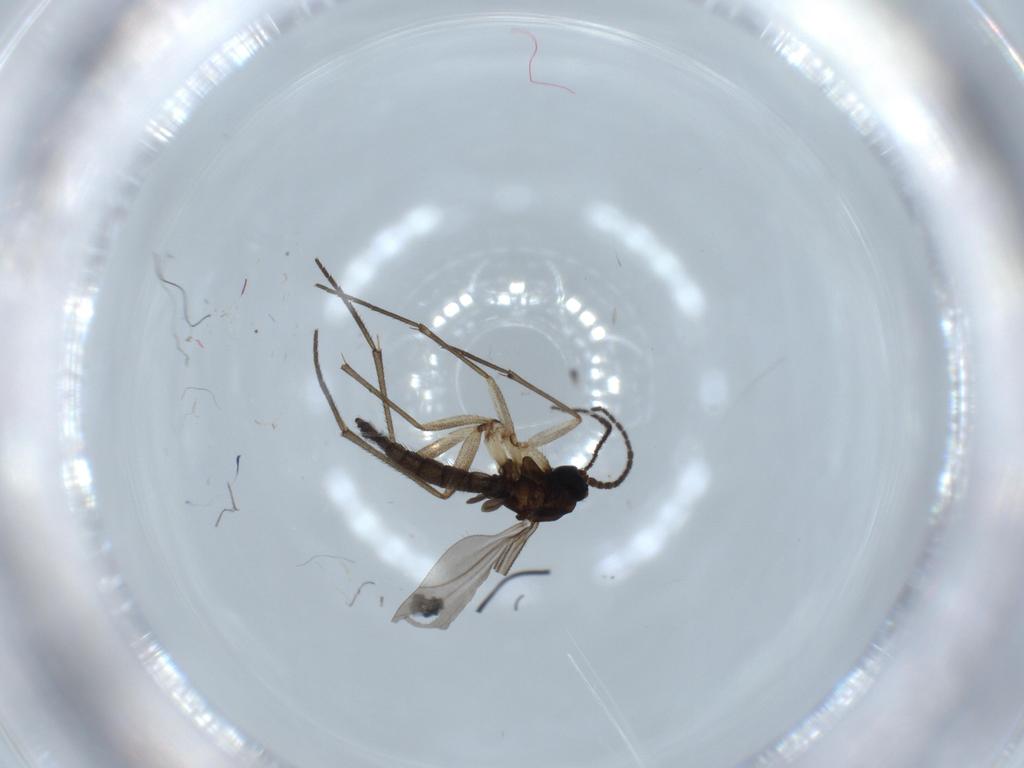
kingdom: Animalia
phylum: Arthropoda
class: Insecta
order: Diptera
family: Sciaridae
